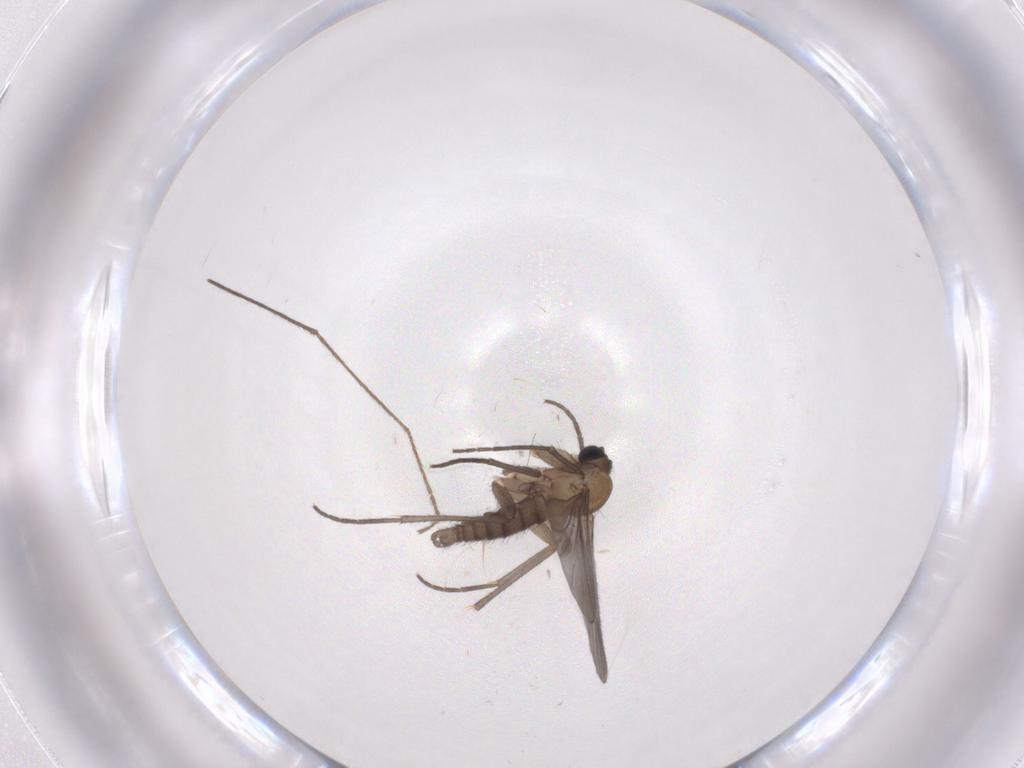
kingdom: Animalia
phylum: Arthropoda
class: Insecta
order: Diptera
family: Sciaridae
